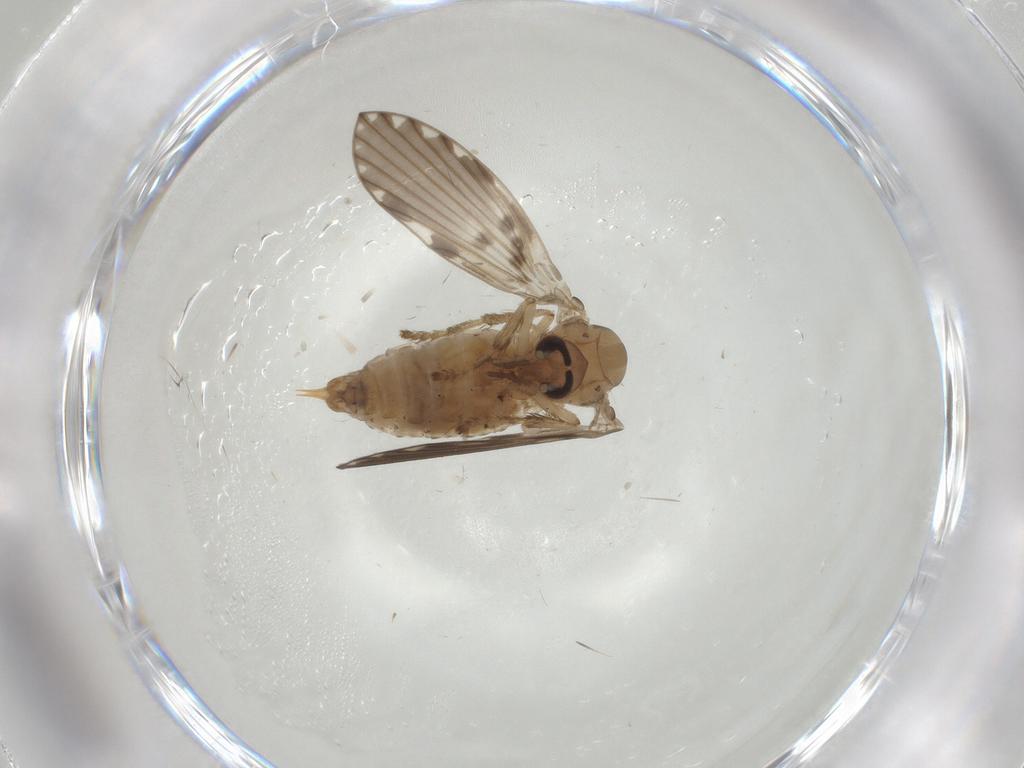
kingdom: Animalia
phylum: Arthropoda
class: Insecta
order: Diptera
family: Psychodidae
